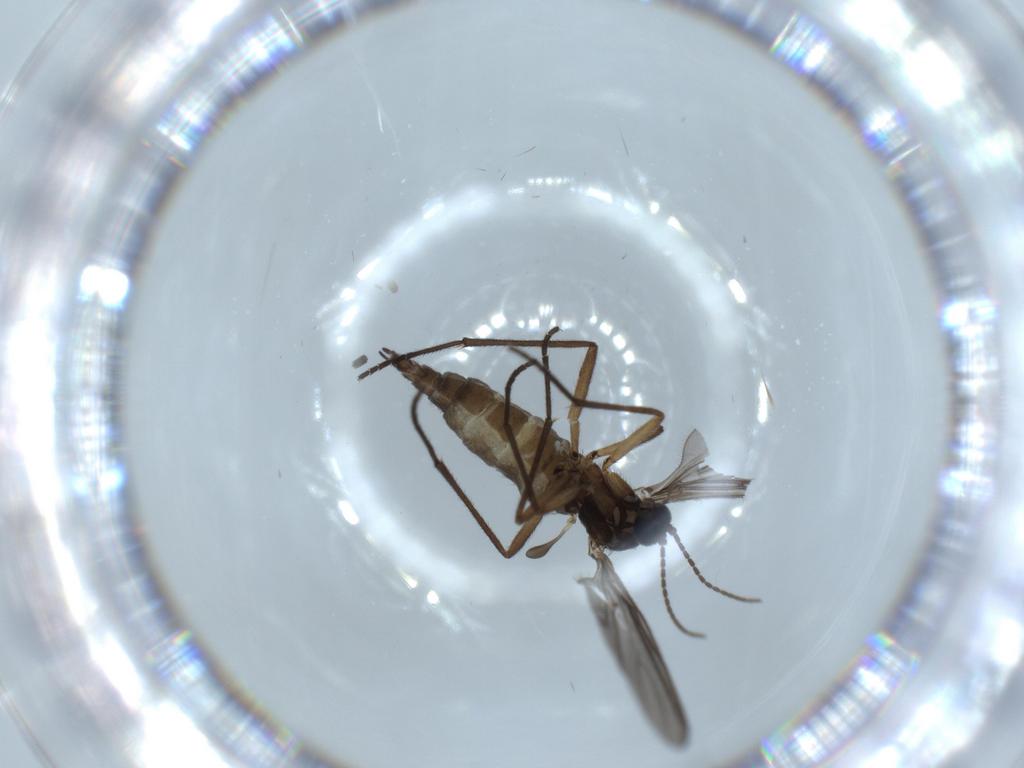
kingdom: Animalia
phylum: Arthropoda
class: Insecta
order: Diptera
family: Sciaridae
